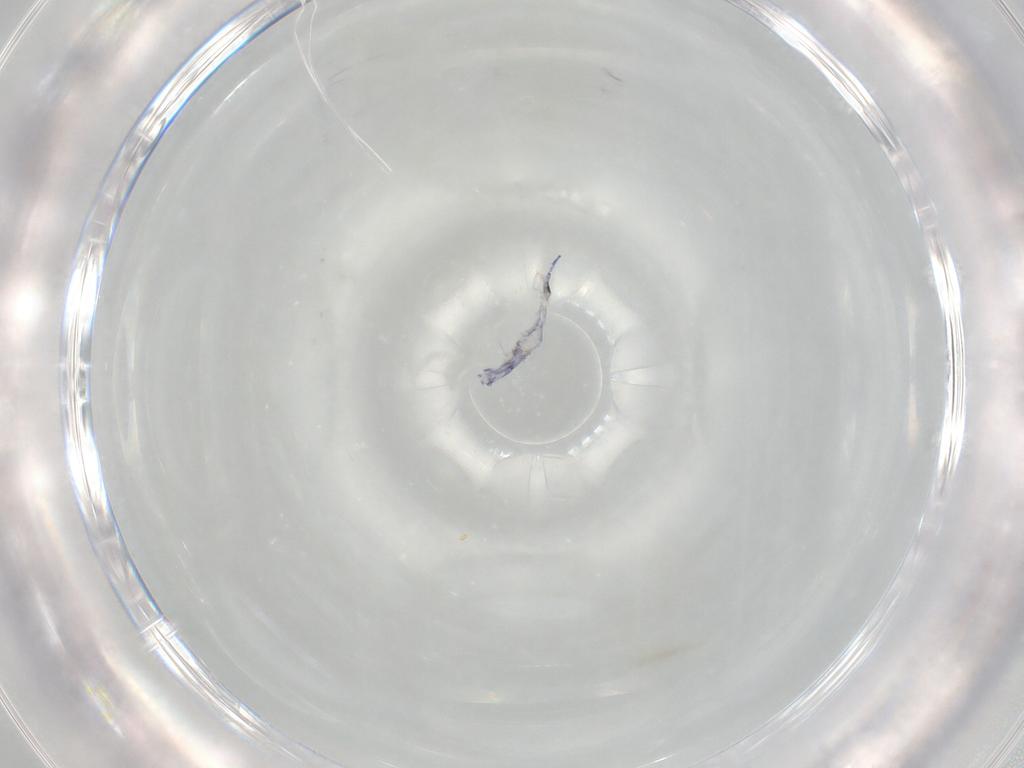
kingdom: Animalia
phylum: Arthropoda
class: Collembola
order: Entomobryomorpha
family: Entomobryidae
